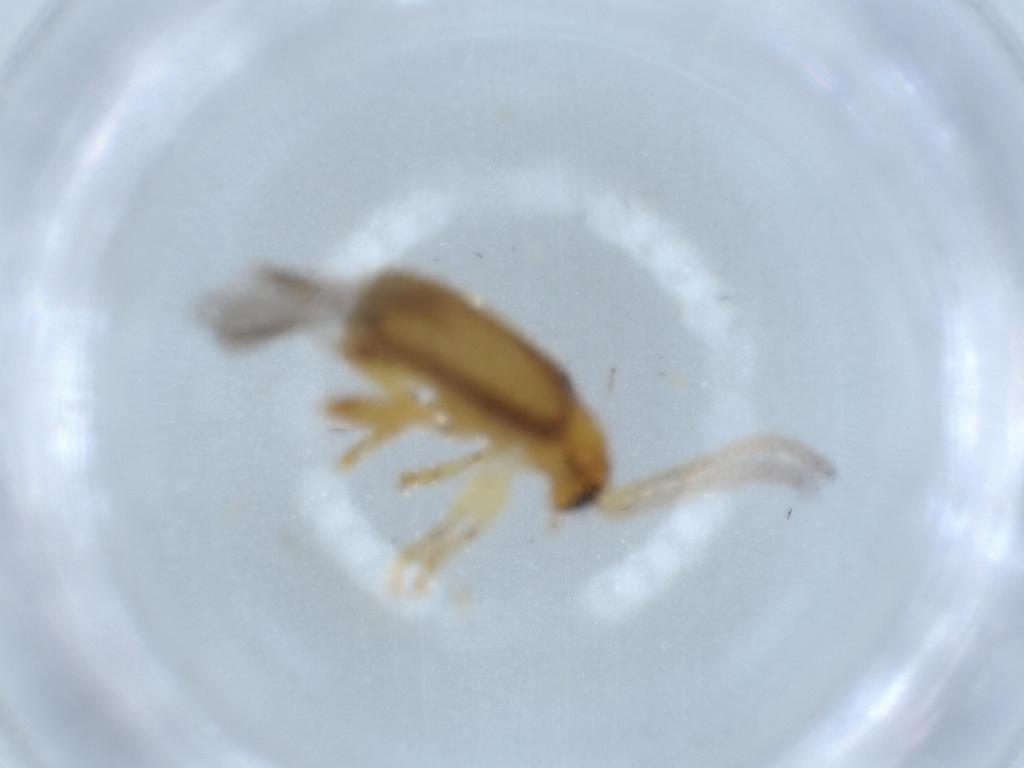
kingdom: Animalia
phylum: Arthropoda
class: Insecta
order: Coleoptera
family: Chrysomelidae
